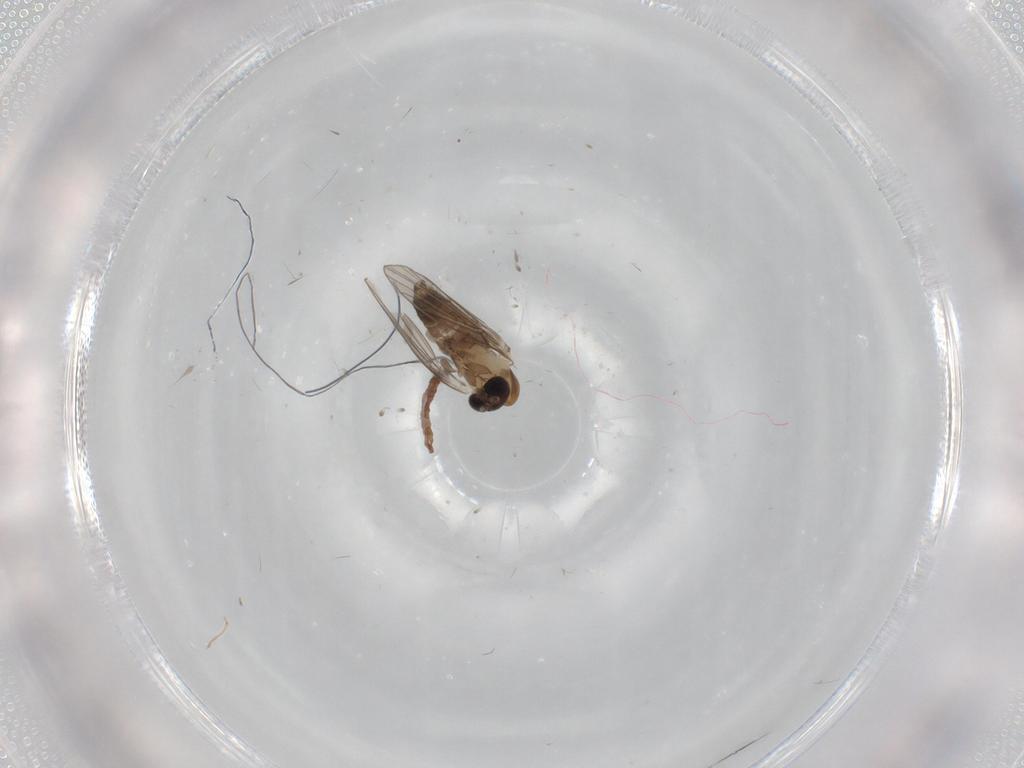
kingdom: Animalia
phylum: Arthropoda
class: Insecta
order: Diptera
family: Psychodidae
